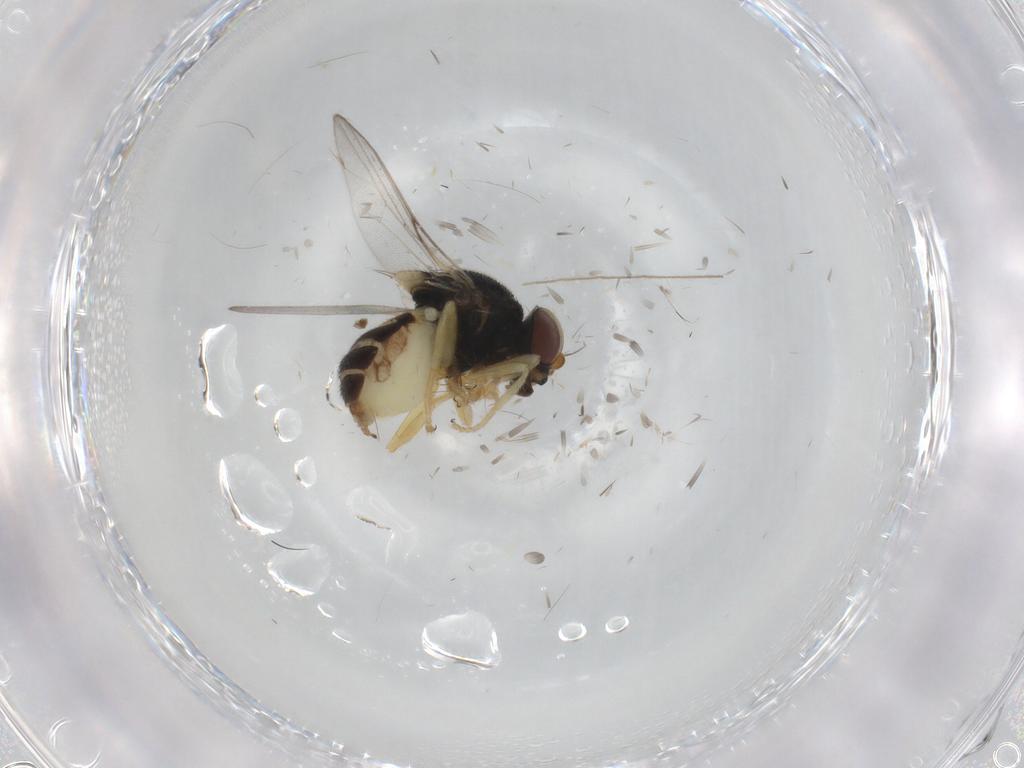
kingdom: Animalia
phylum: Arthropoda
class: Insecta
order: Diptera
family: Chloropidae
